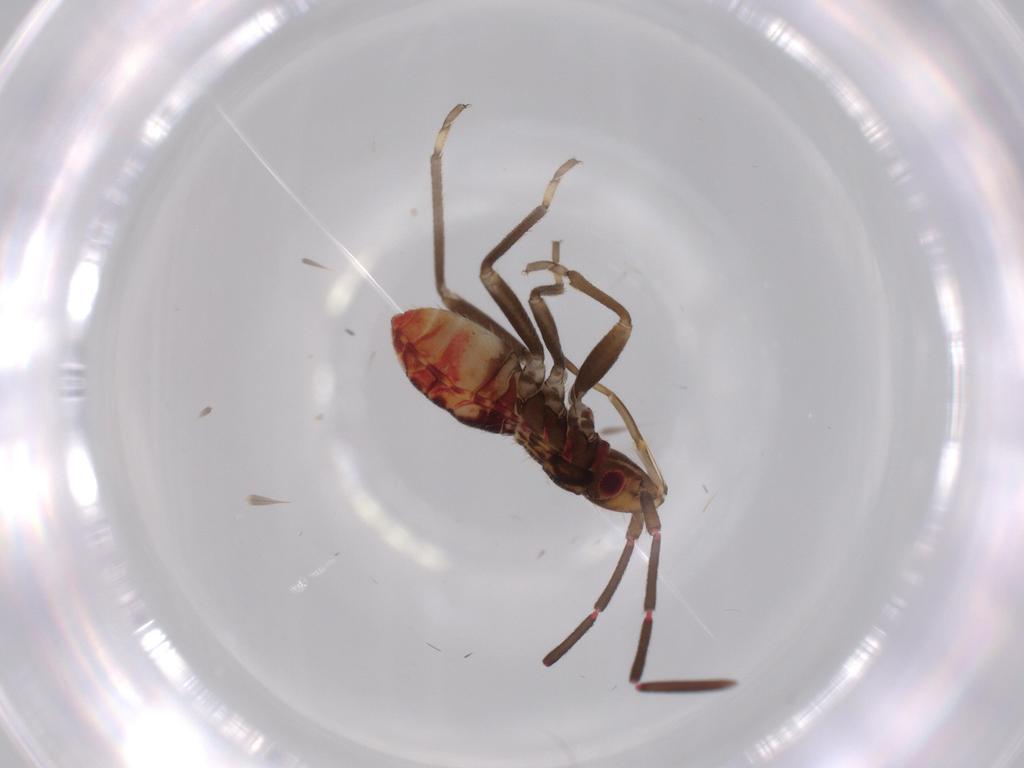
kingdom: Animalia
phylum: Arthropoda
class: Insecta
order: Hemiptera
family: Rhyparochromidae
